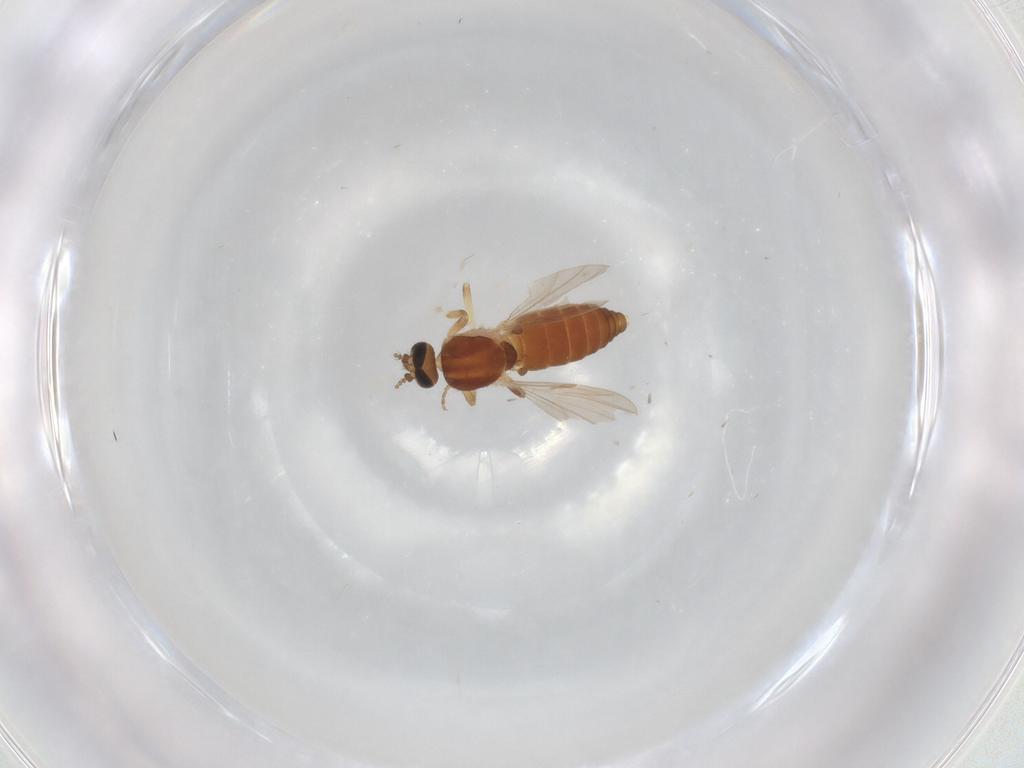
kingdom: Animalia
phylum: Arthropoda
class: Insecta
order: Diptera
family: Ceratopogonidae
